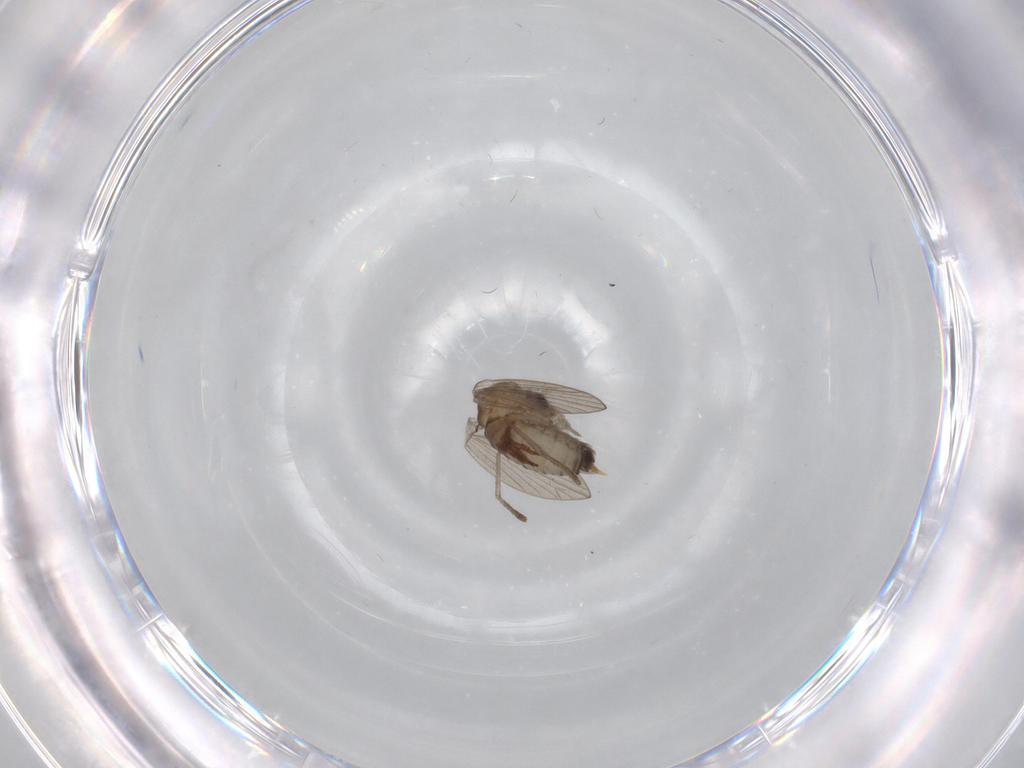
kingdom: Animalia
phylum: Arthropoda
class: Insecta
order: Diptera
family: Psychodidae
